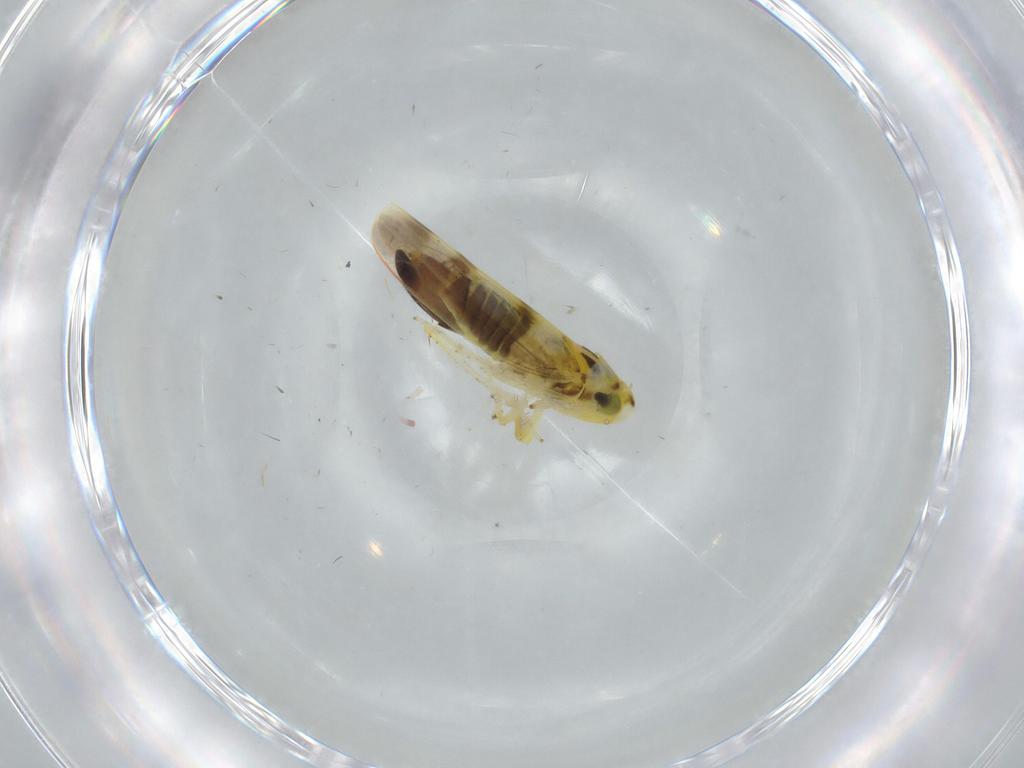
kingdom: Animalia
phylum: Arthropoda
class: Insecta
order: Hemiptera
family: Cicadellidae
